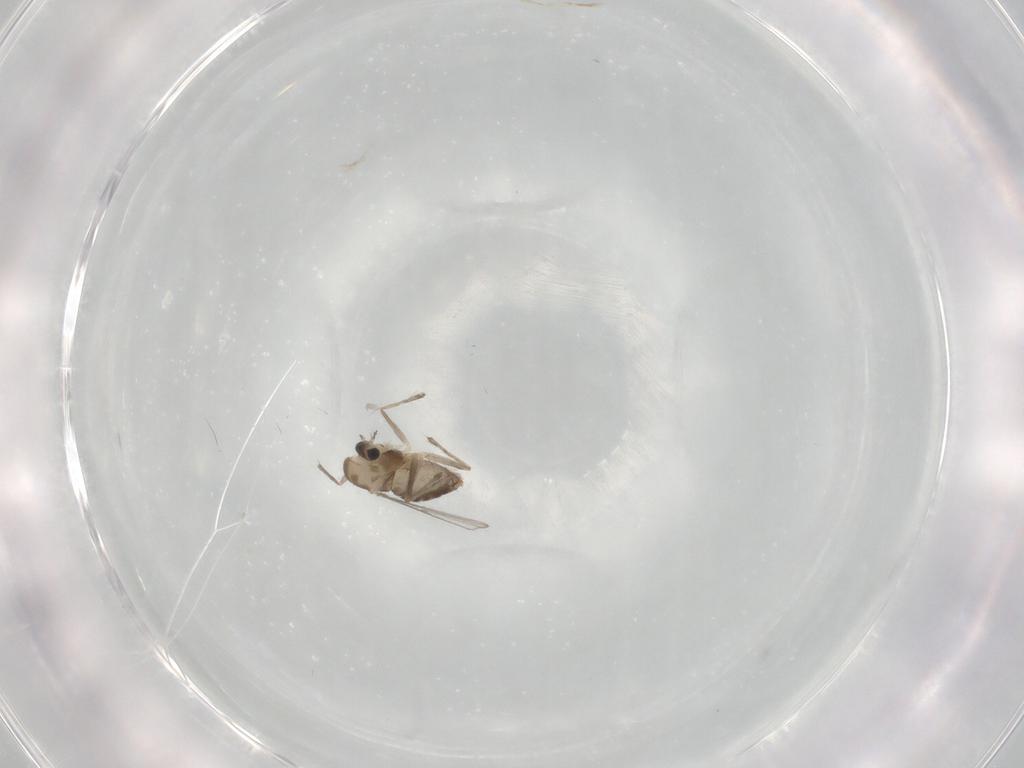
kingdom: Animalia
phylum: Arthropoda
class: Insecta
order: Diptera
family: Chironomidae
